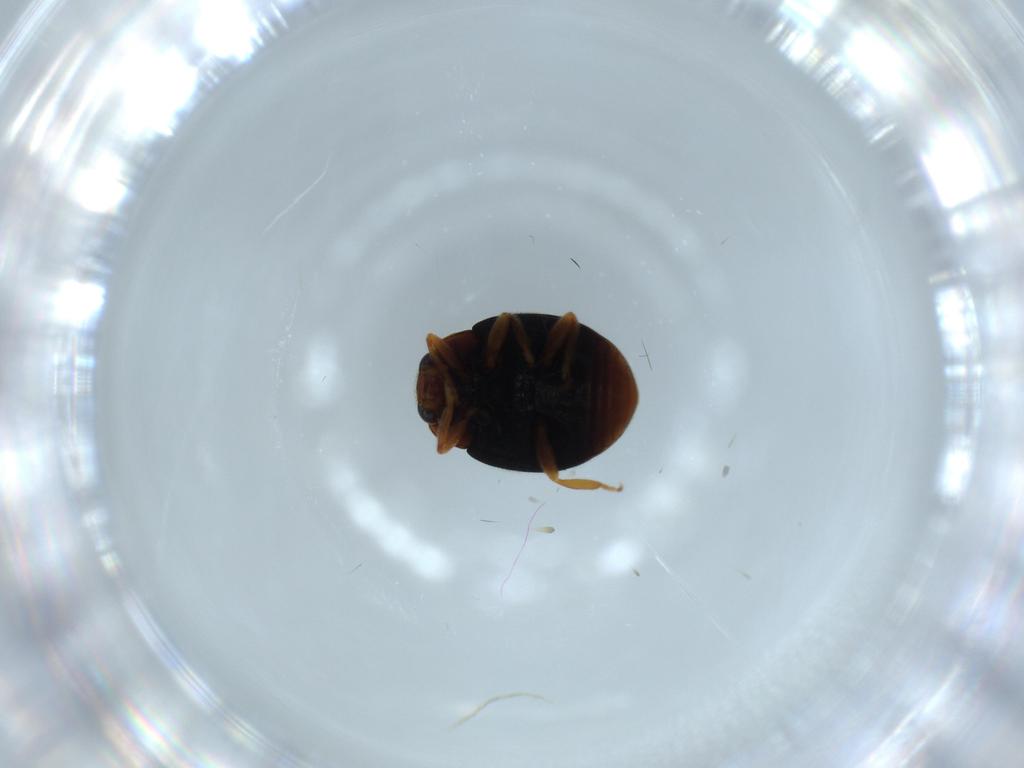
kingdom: Animalia
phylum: Arthropoda
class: Insecta
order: Coleoptera
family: Coccinellidae
